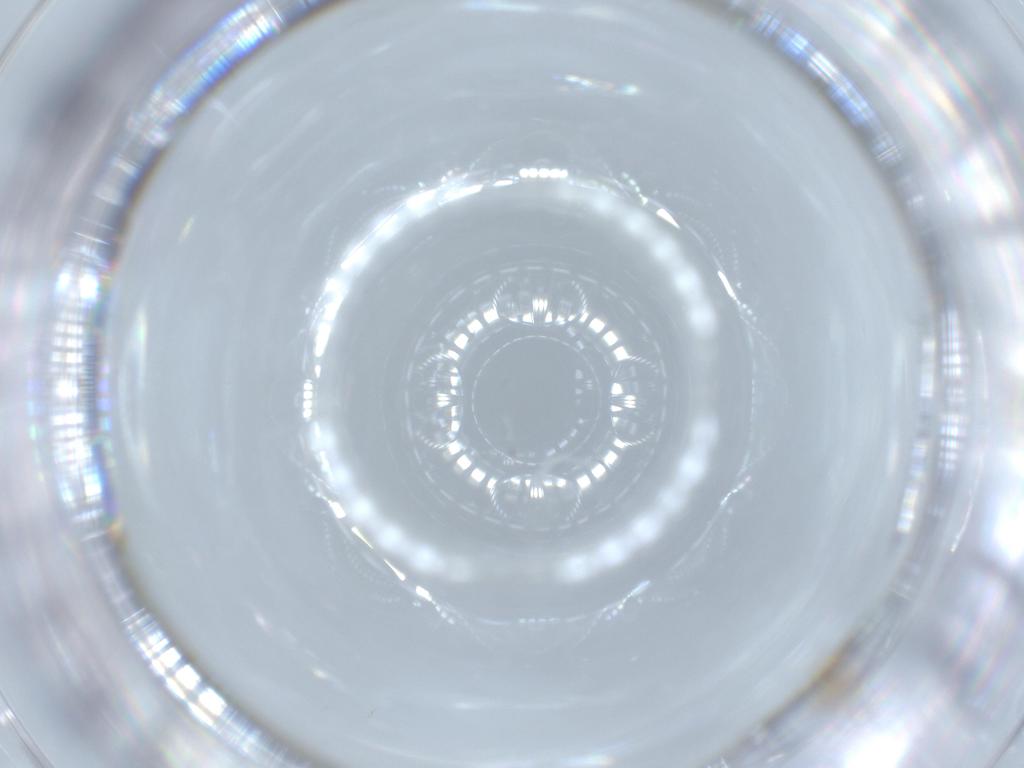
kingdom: Animalia
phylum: Arthropoda
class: Insecta
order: Diptera
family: Cecidomyiidae
